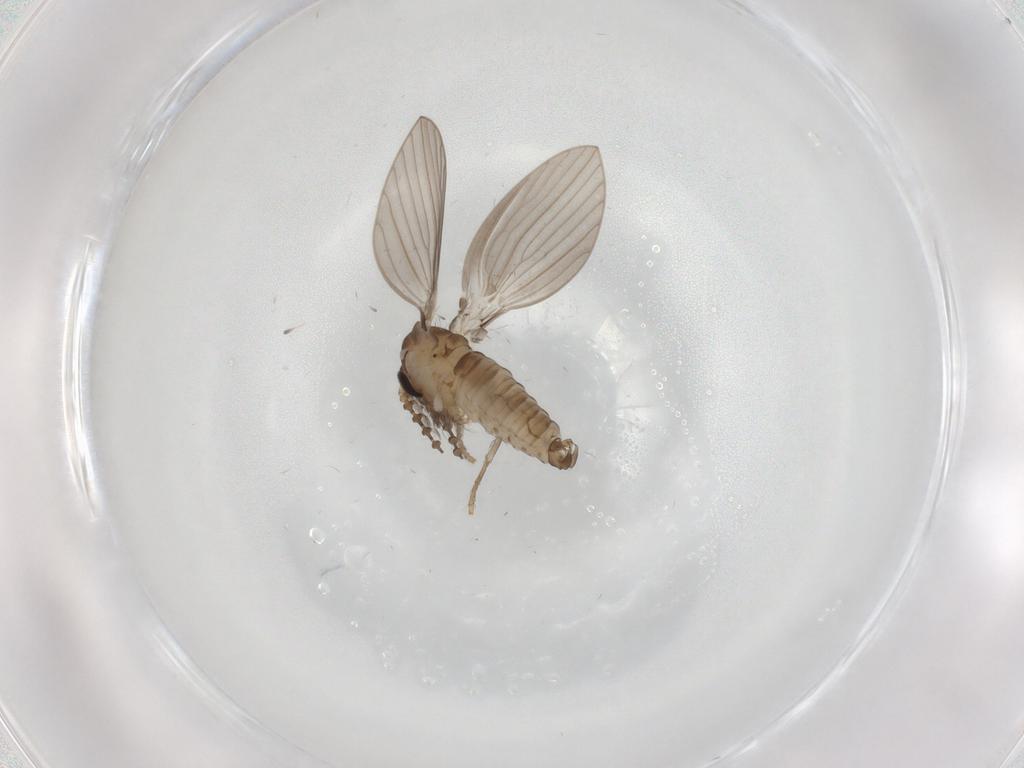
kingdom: Animalia
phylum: Arthropoda
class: Insecta
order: Diptera
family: Psychodidae
